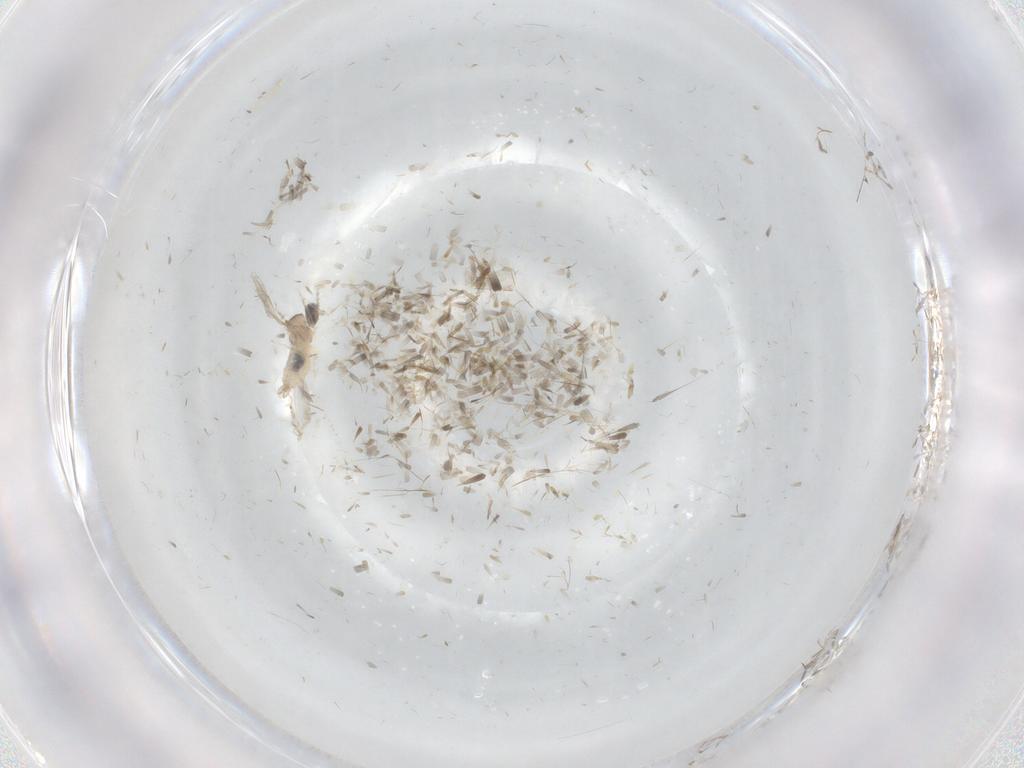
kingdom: Animalia
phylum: Arthropoda
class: Insecta
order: Diptera
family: Cecidomyiidae
